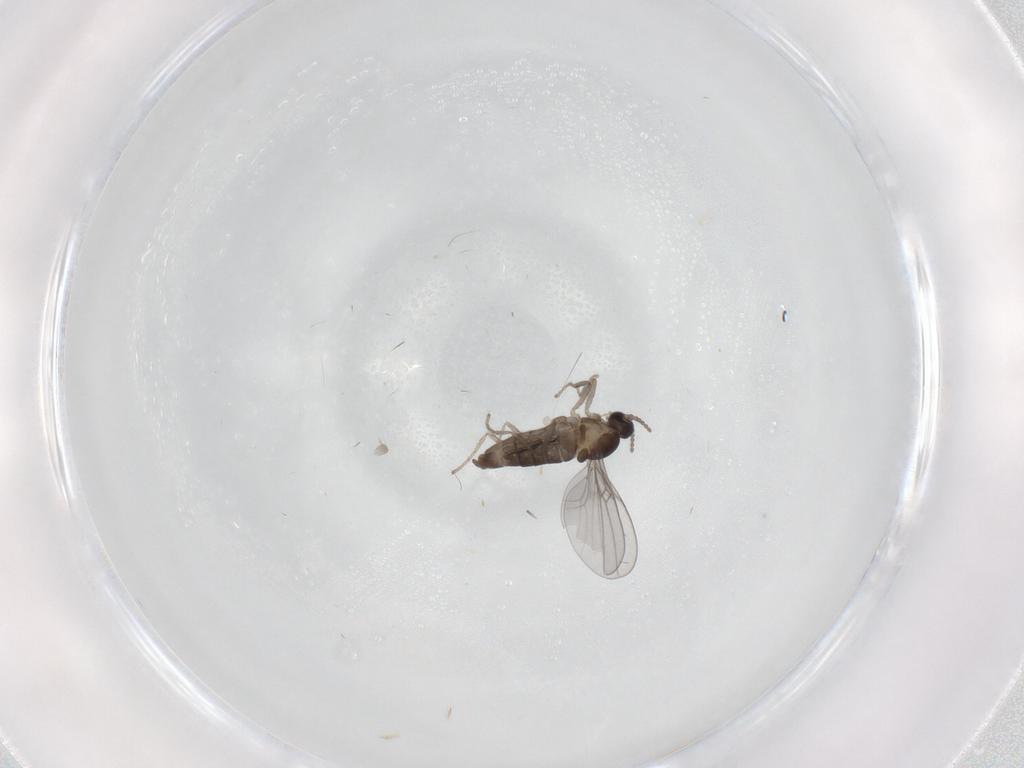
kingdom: Animalia
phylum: Arthropoda
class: Insecta
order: Diptera
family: Cecidomyiidae
